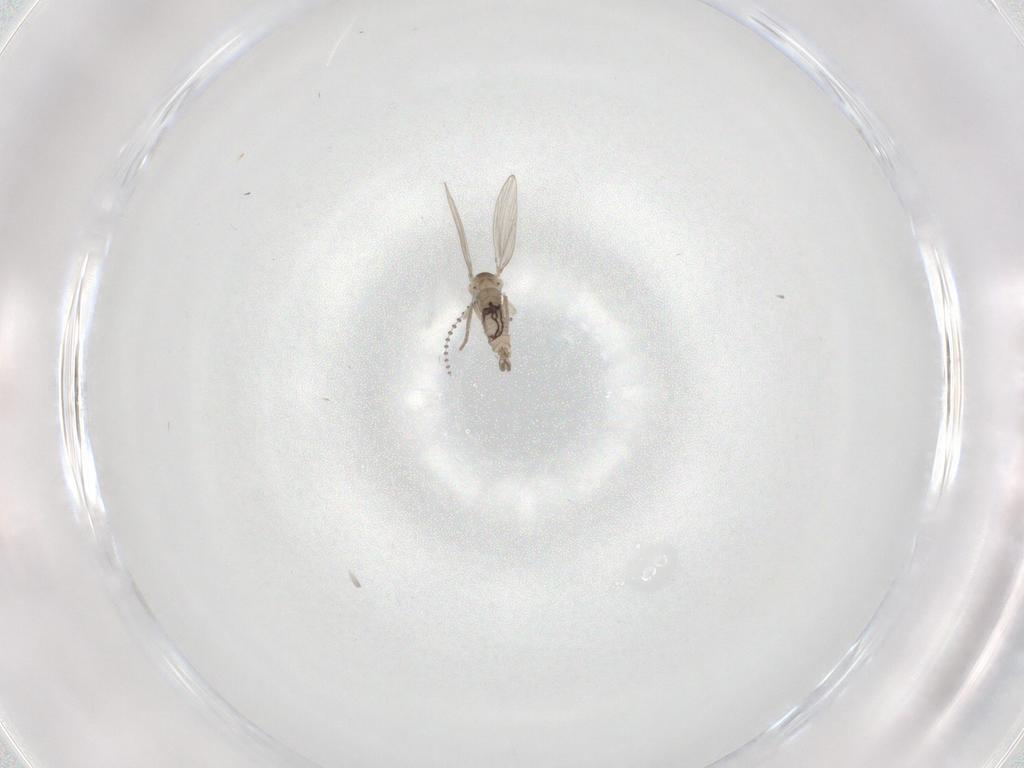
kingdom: Animalia
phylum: Arthropoda
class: Insecta
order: Diptera
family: Psychodidae
